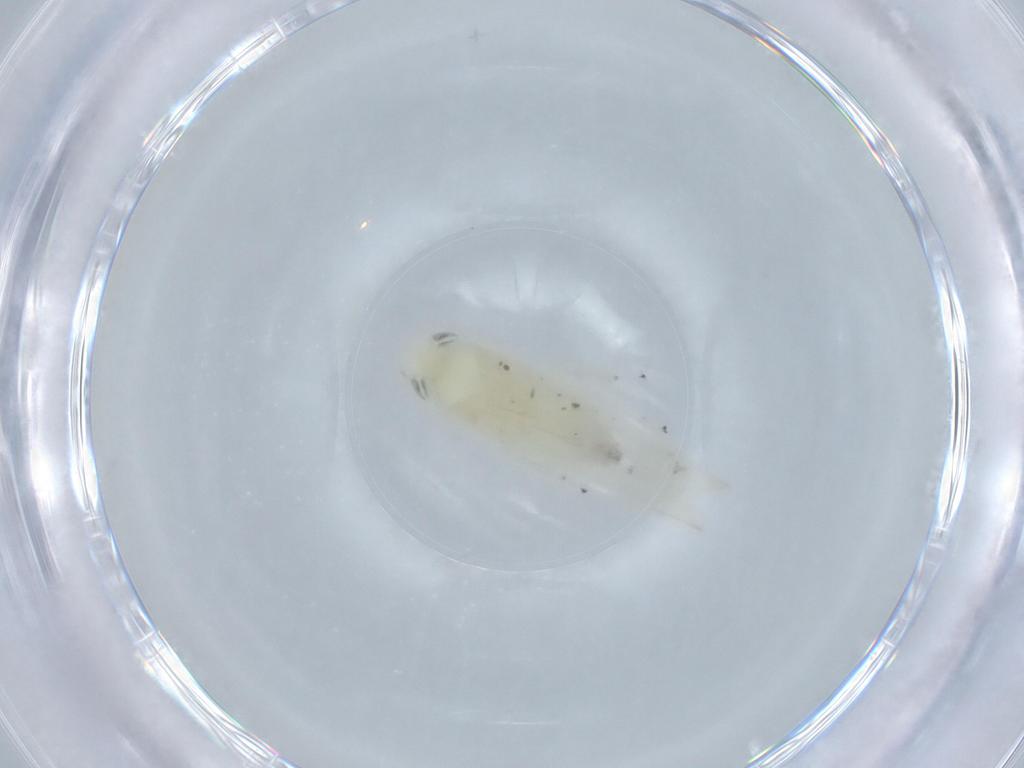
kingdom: Animalia
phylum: Arthropoda
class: Insecta
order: Hemiptera
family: Cicadellidae
